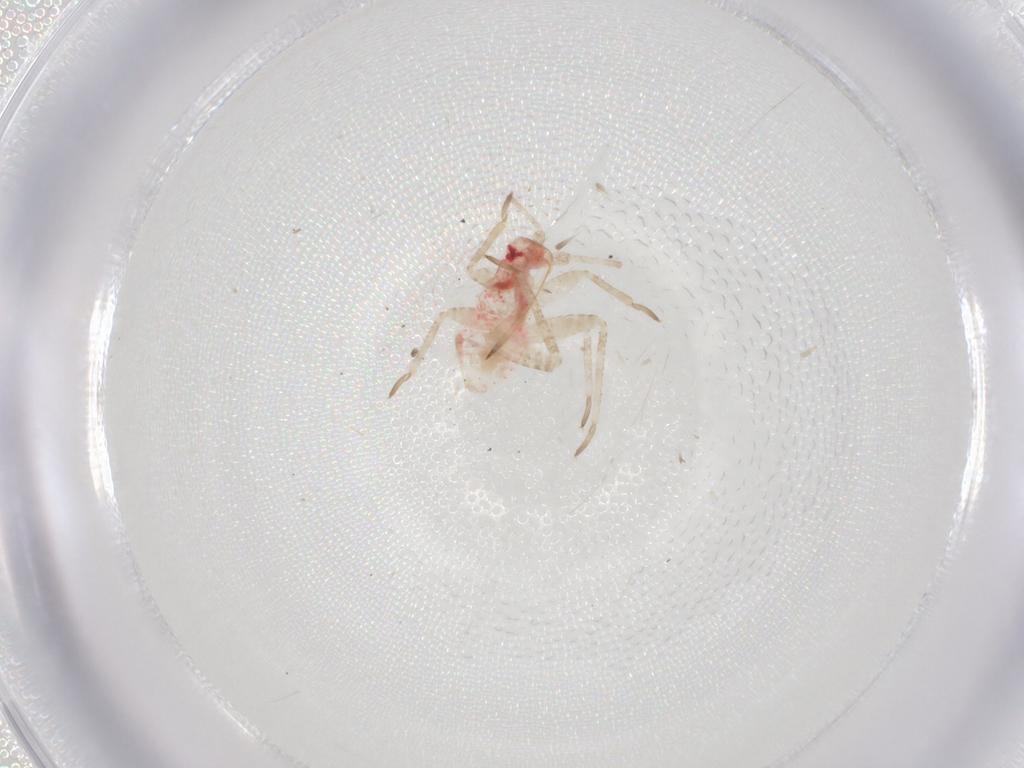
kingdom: Animalia
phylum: Arthropoda
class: Insecta
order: Hemiptera
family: Miridae
